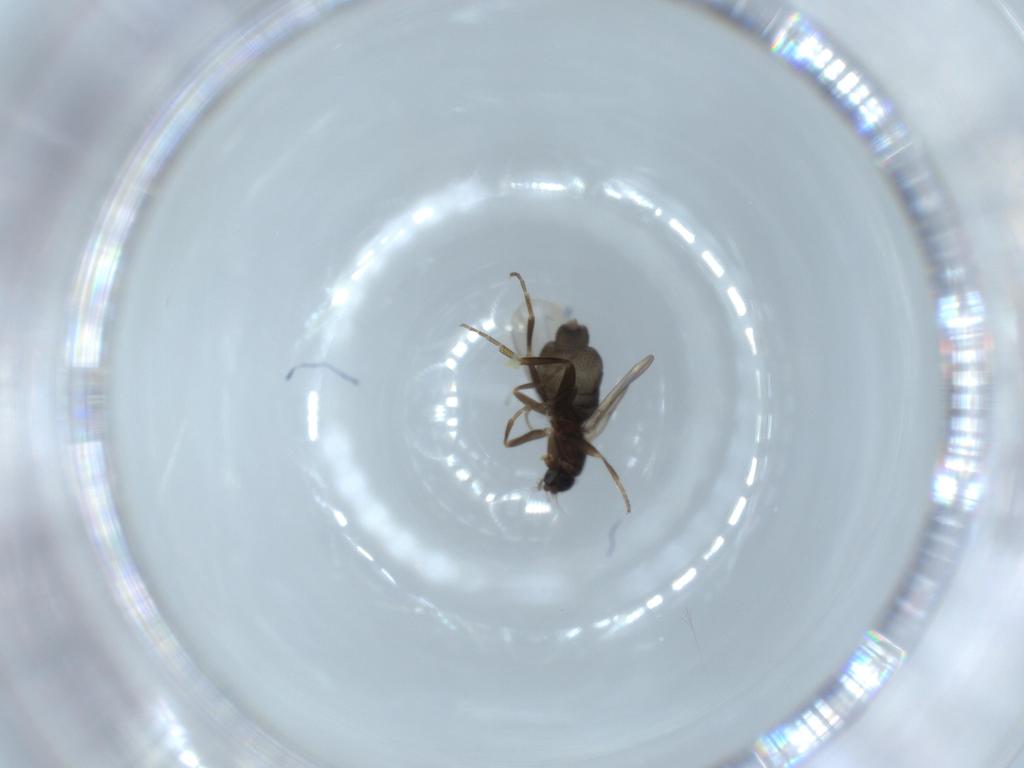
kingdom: Animalia
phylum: Arthropoda
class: Insecta
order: Diptera
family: Phoridae
